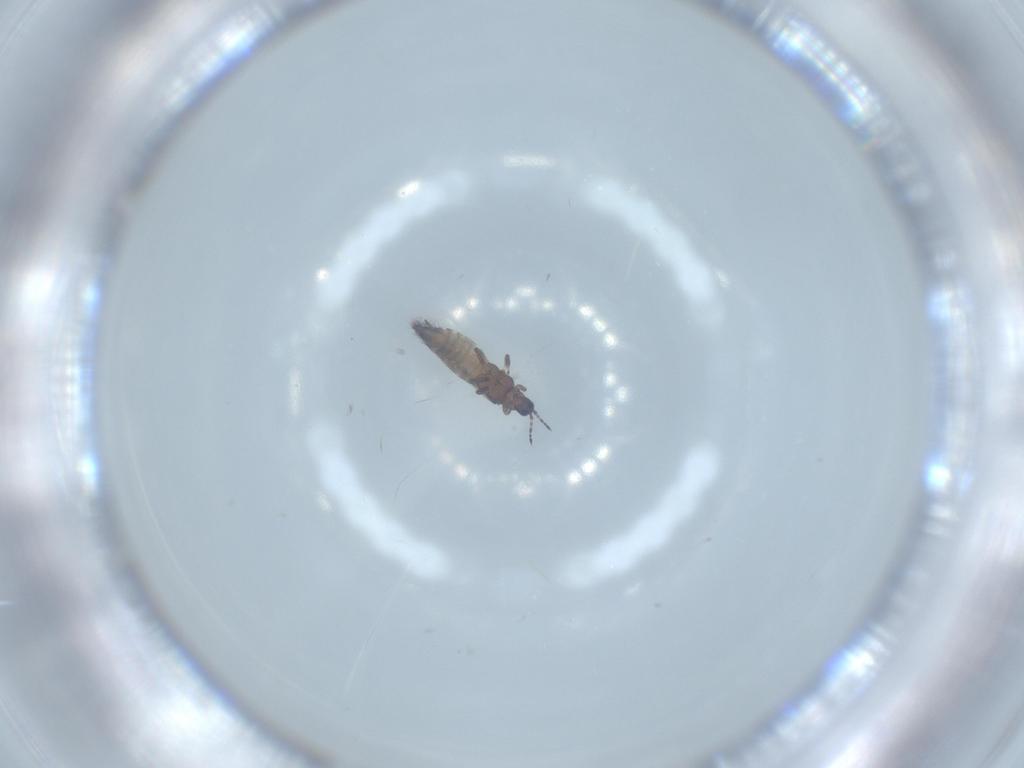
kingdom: Animalia
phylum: Arthropoda
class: Insecta
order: Thysanoptera
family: Thripidae
